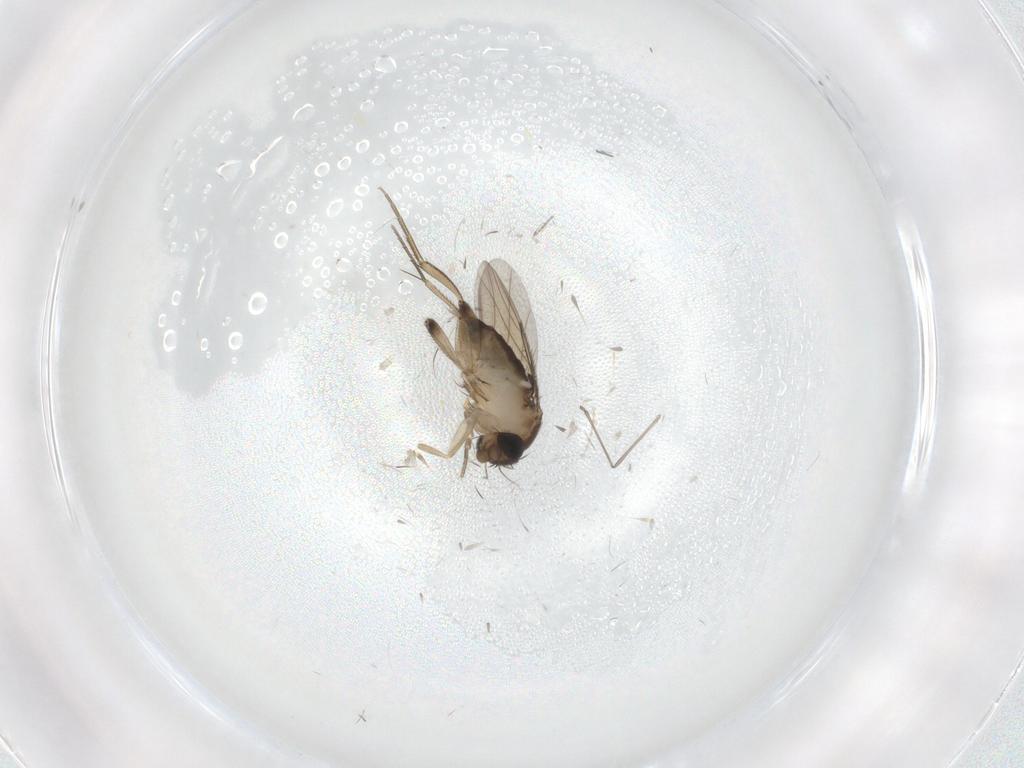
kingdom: Animalia
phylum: Arthropoda
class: Insecta
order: Diptera
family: Phoridae
